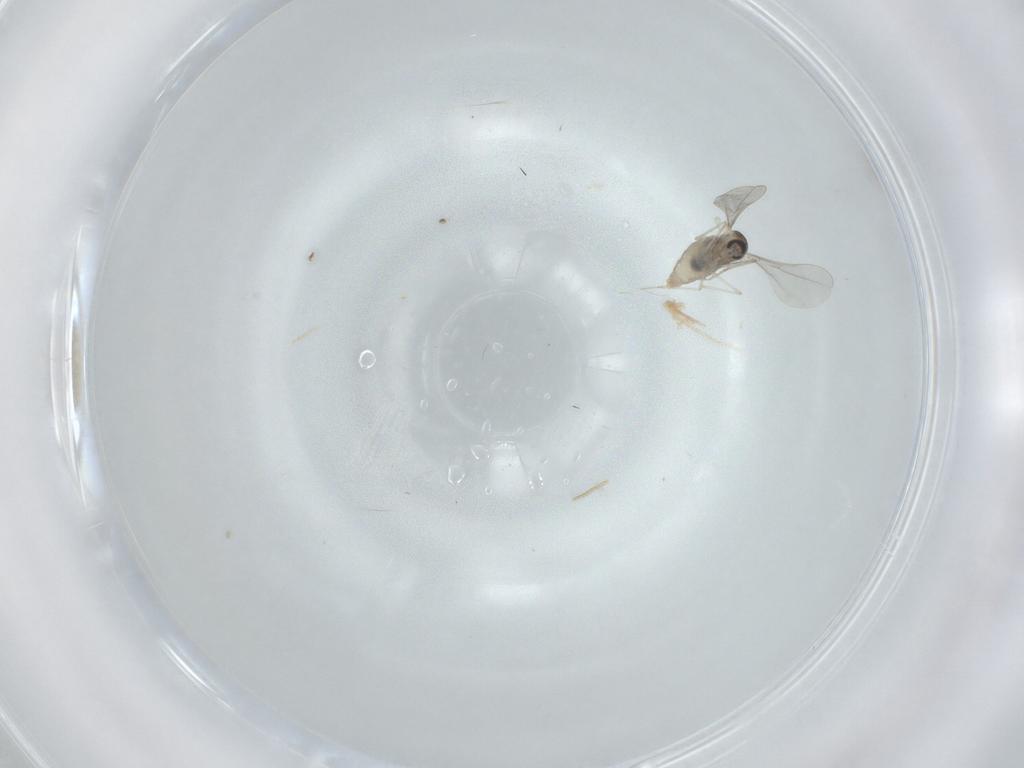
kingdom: Animalia
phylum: Arthropoda
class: Insecta
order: Diptera
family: Cecidomyiidae
